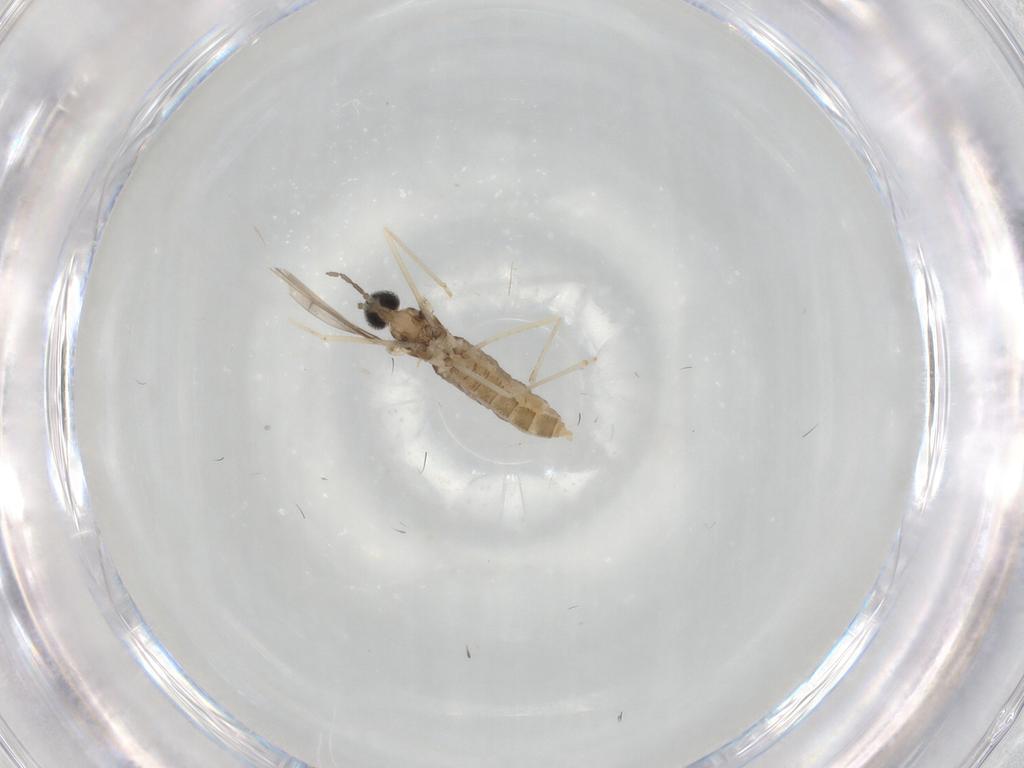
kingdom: Animalia
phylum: Arthropoda
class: Insecta
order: Diptera
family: Cecidomyiidae
